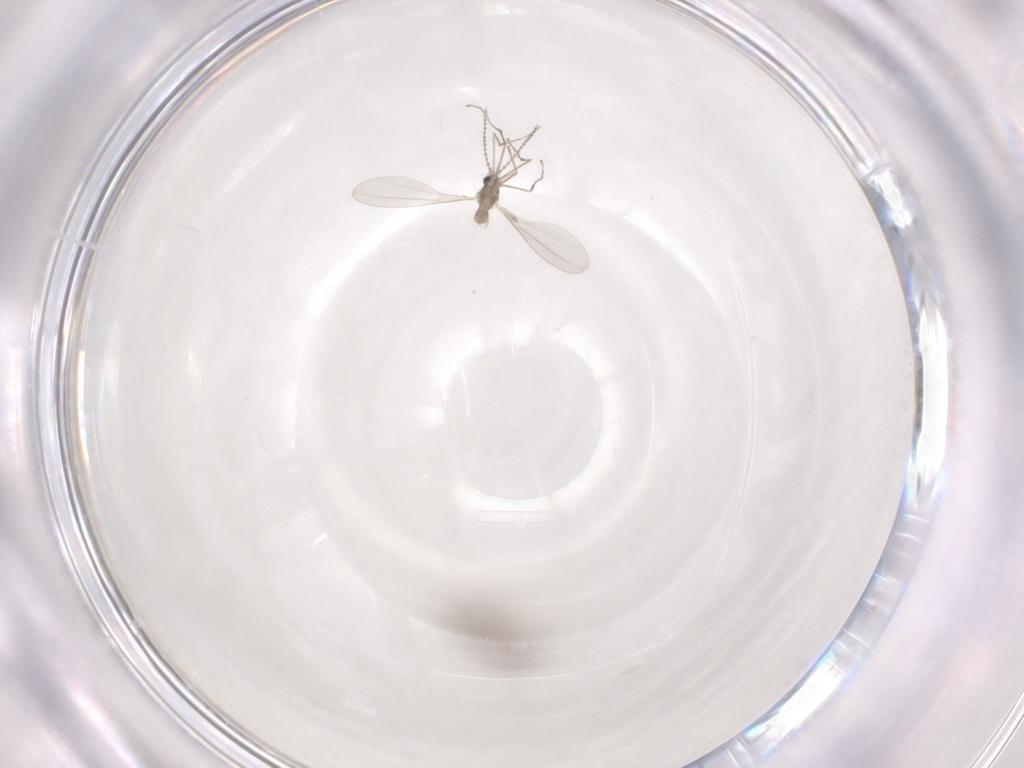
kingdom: Animalia
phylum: Arthropoda
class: Insecta
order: Diptera
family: Cecidomyiidae
